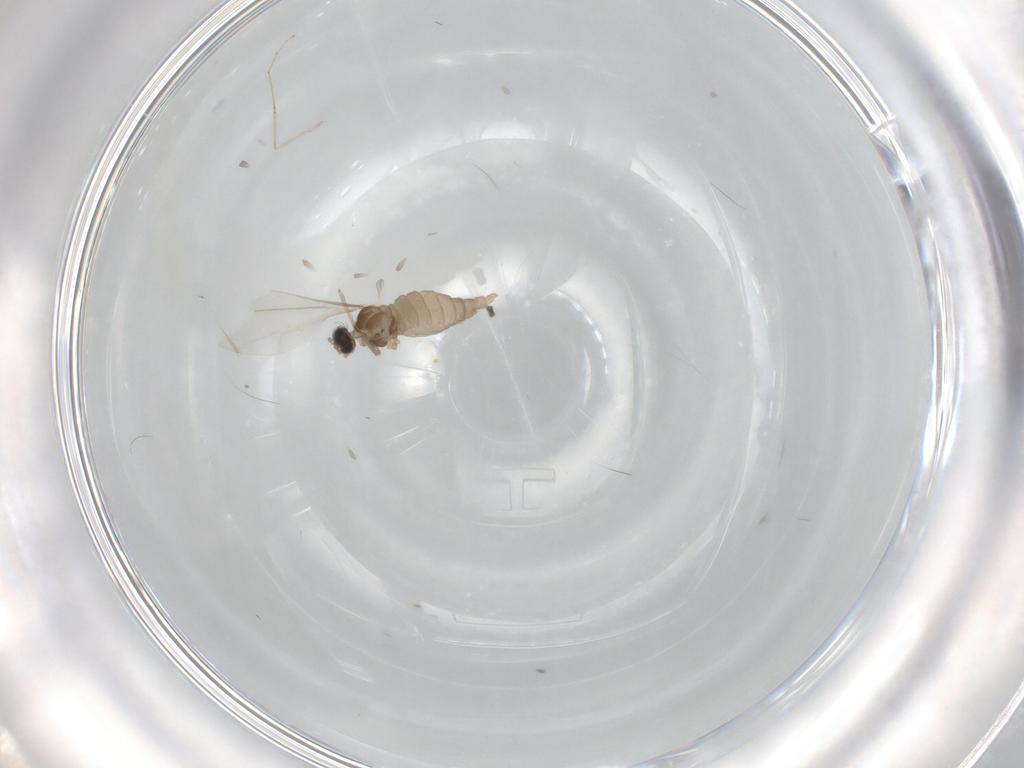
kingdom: Animalia
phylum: Arthropoda
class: Insecta
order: Diptera
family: Cecidomyiidae
